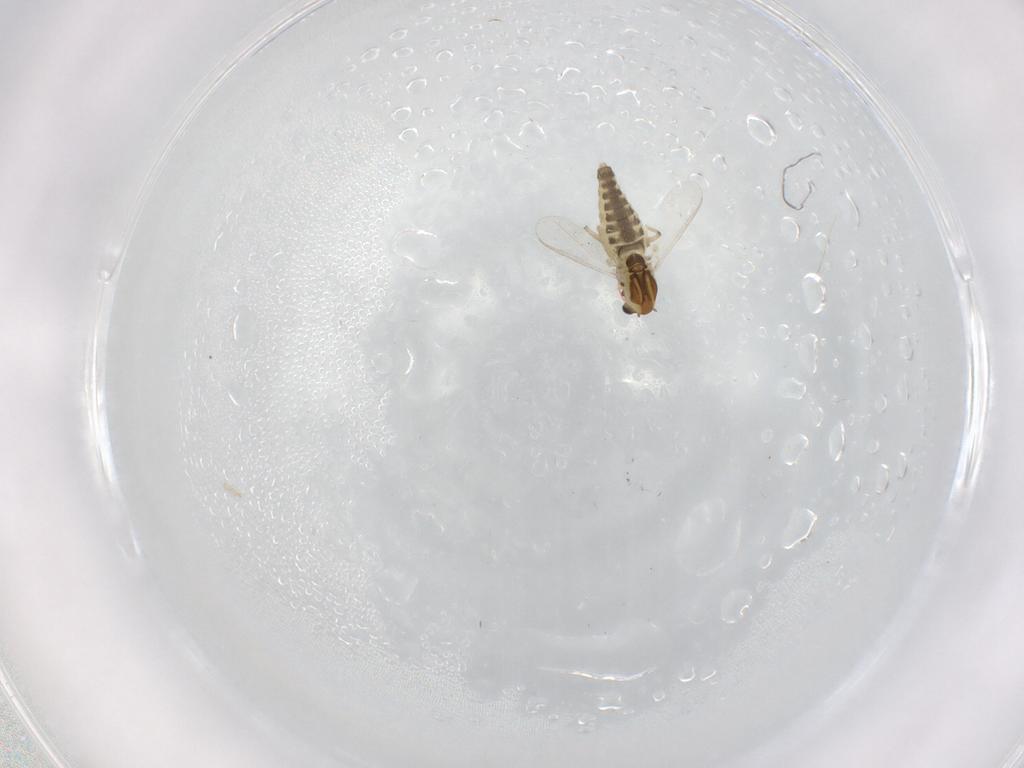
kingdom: Animalia
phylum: Arthropoda
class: Insecta
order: Diptera
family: Chironomidae
